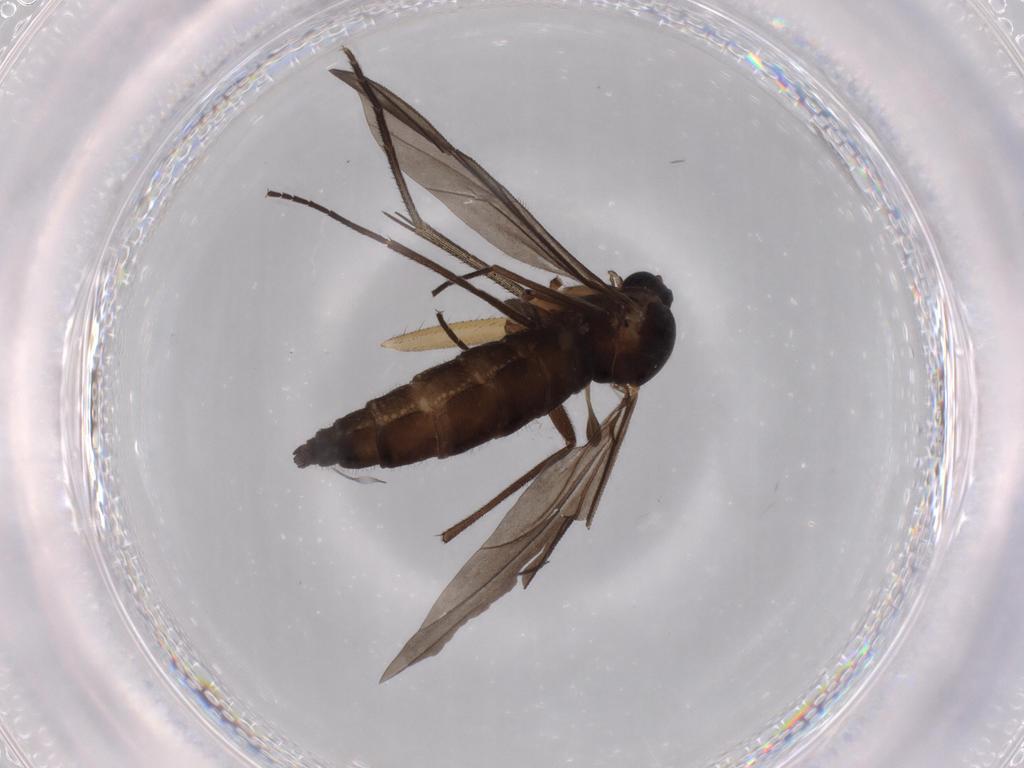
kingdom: Animalia
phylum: Arthropoda
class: Insecta
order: Diptera
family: Sciaridae
